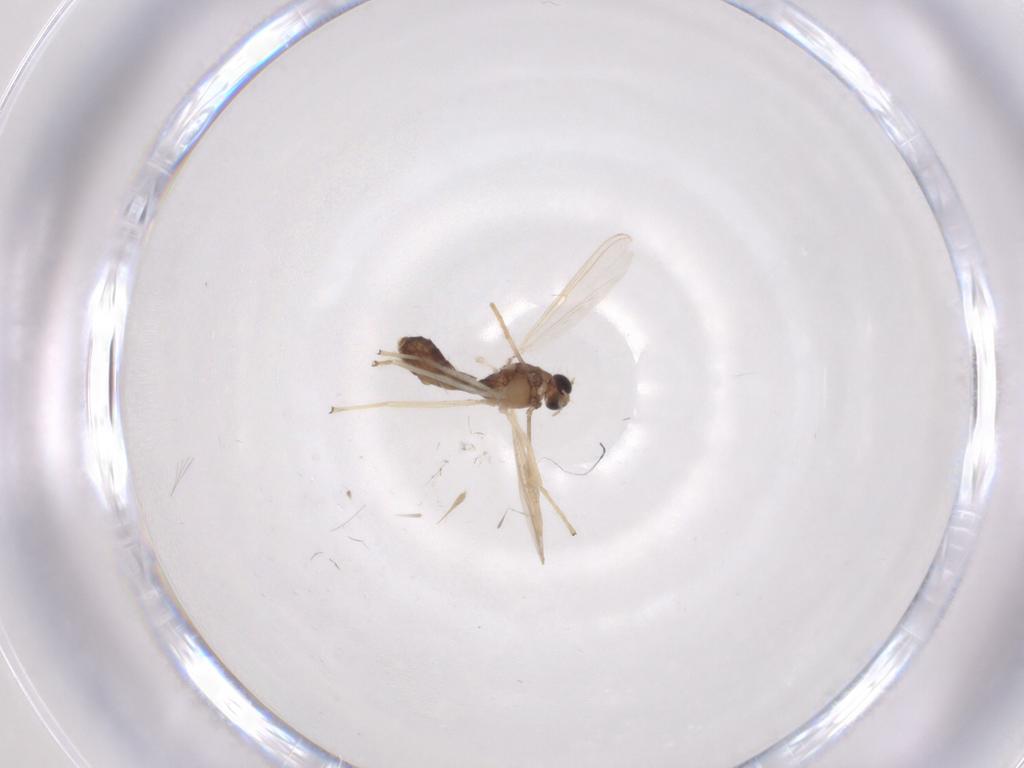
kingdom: Animalia
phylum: Arthropoda
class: Insecta
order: Diptera
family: Chironomidae
